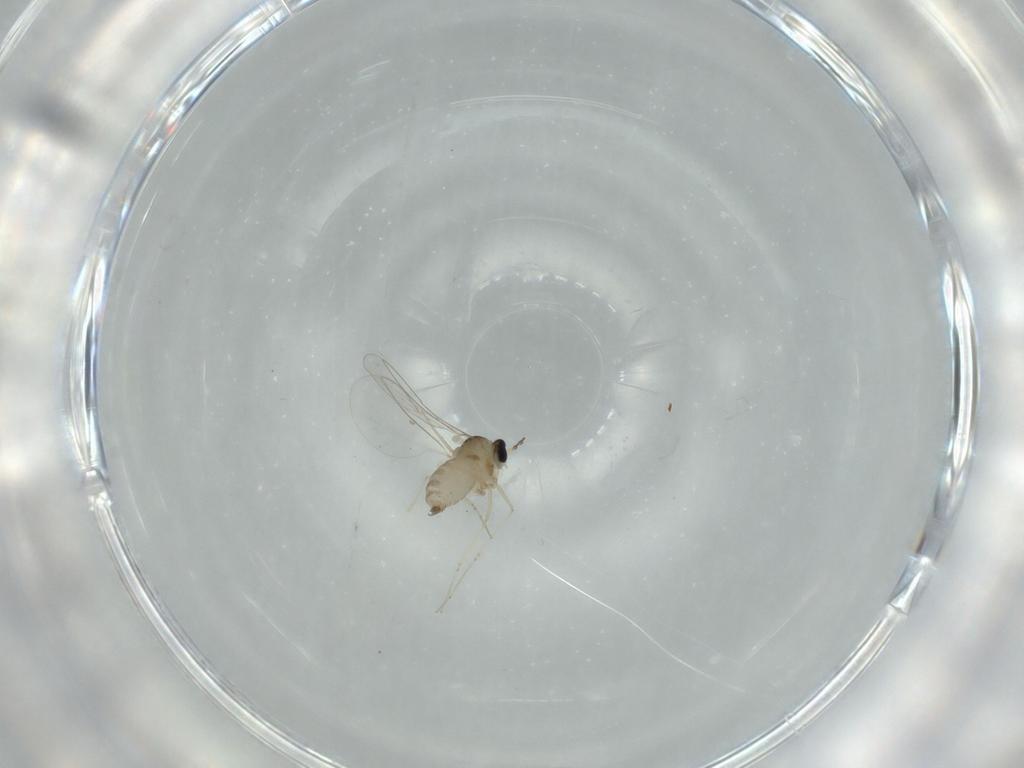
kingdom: Animalia
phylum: Arthropoda
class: Insecta
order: Diptera
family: Cecidomyiidae
